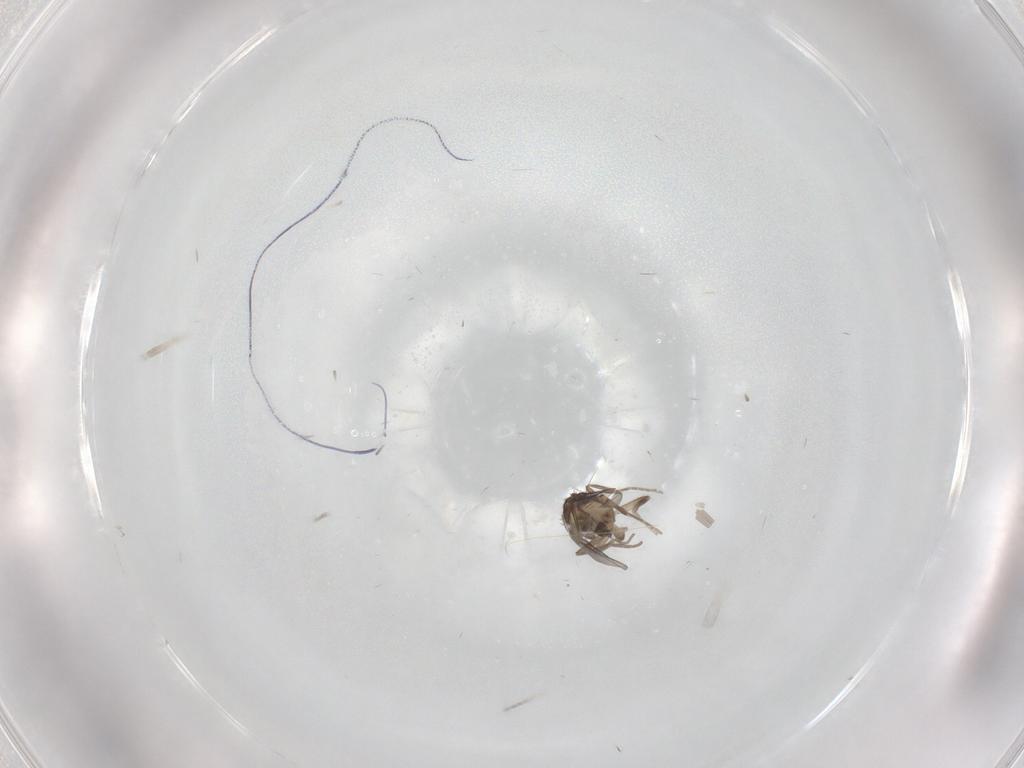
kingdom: Animalia
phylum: Arthropoda
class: Insecta
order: Diptera
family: Phoridae
